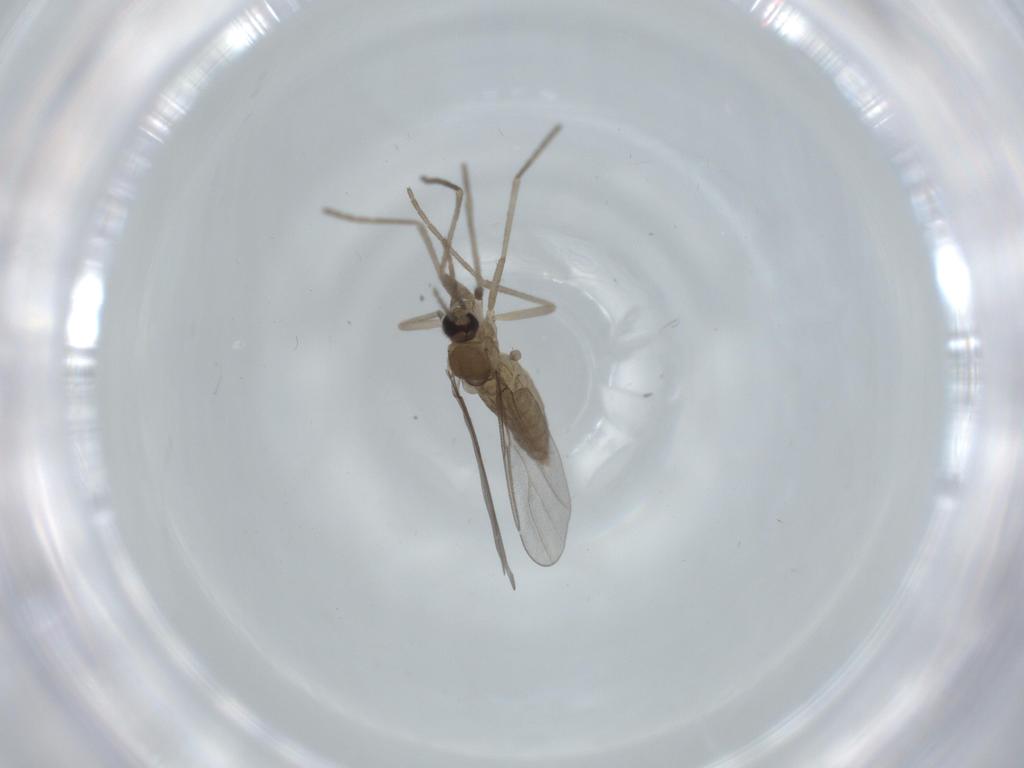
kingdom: Animalia
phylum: Arthropoda
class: Insecta
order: Diptera
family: Cecidomyiidae
